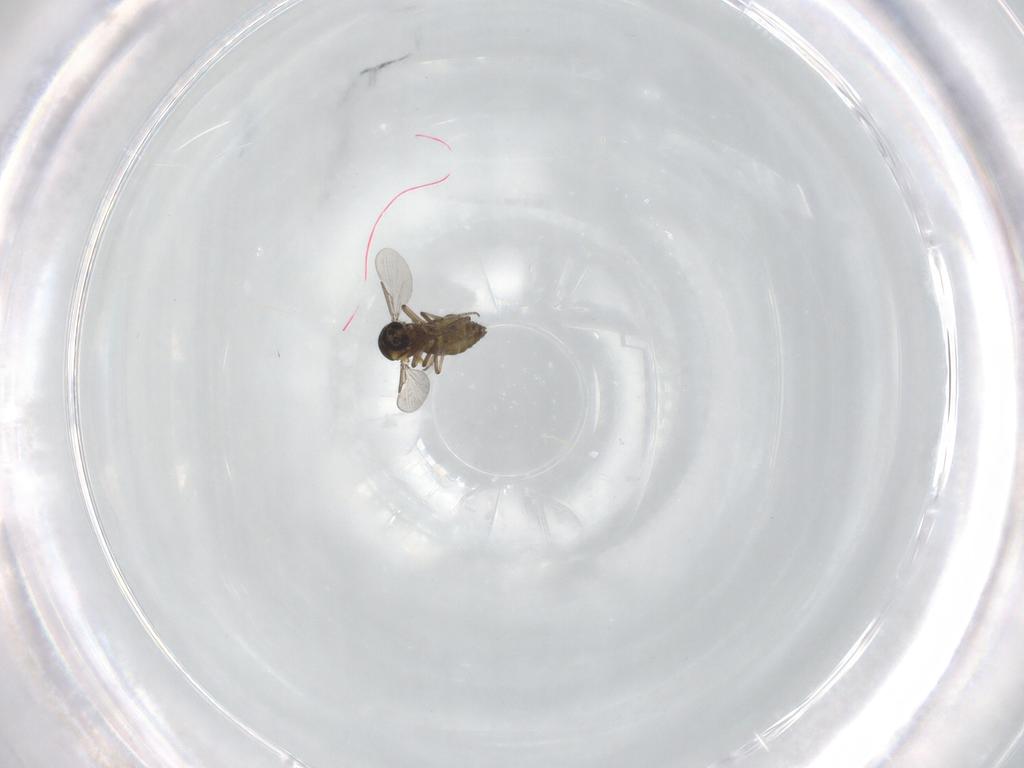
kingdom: Animalia
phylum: Arthropoda
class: Insecta
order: Diptera
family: Ceratopogonidae
